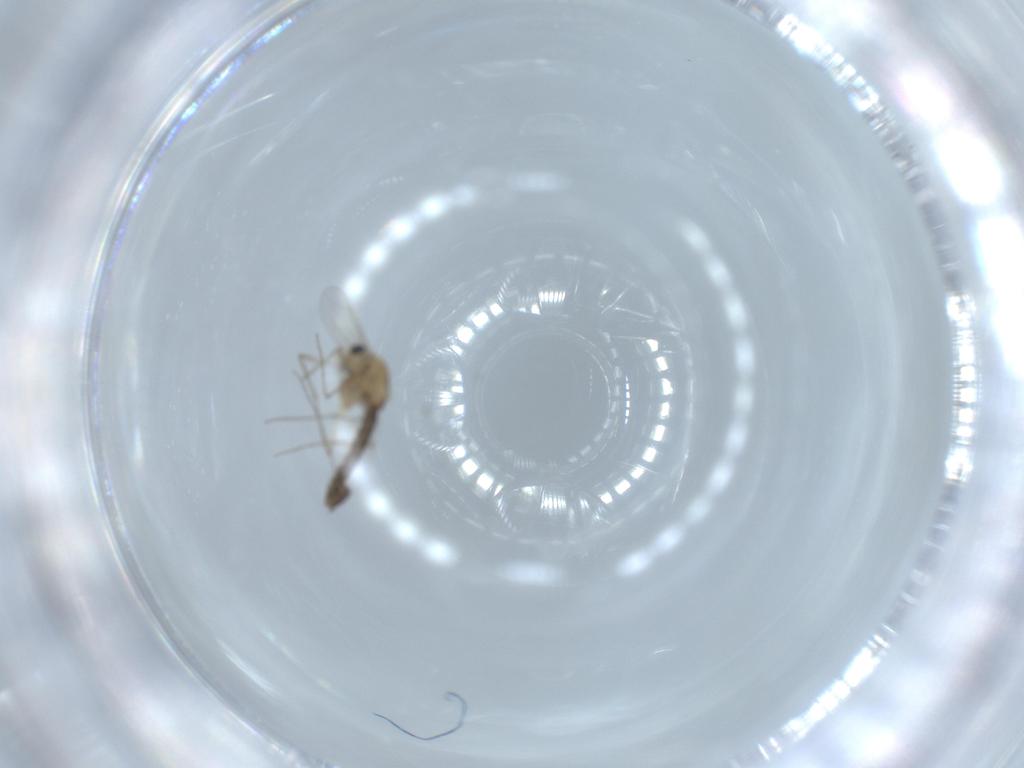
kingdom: Animalia
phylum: Arthropoda
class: Insecta
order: Diptera
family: Chironomidae
